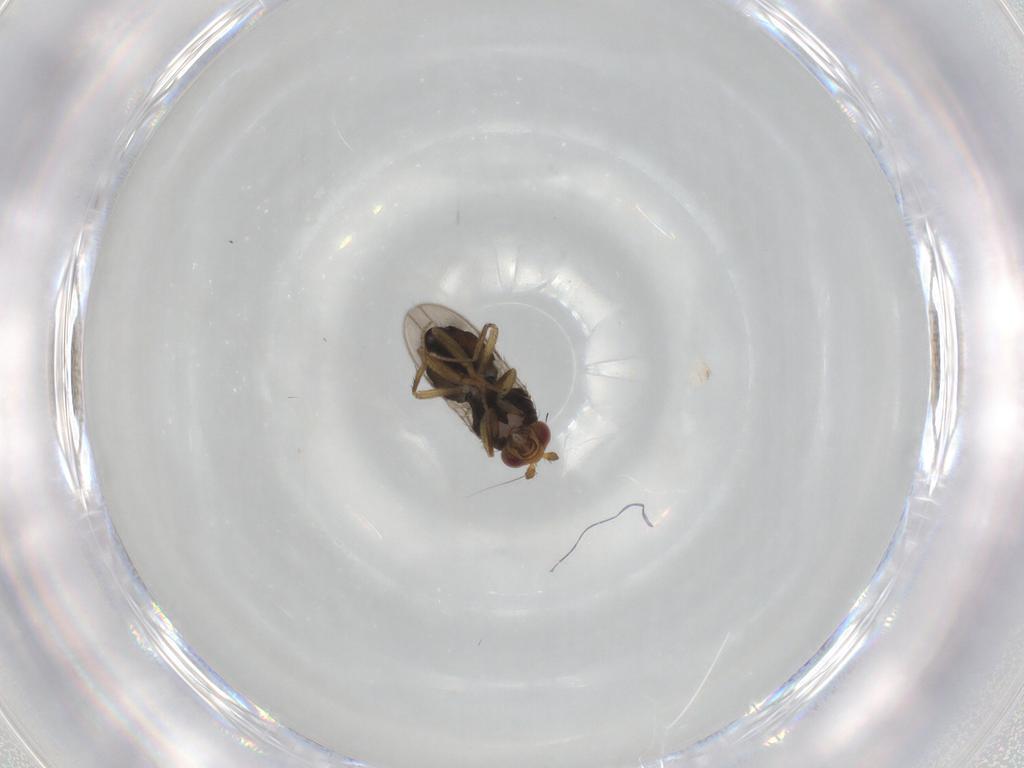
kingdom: Animalia
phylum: Arthropoda
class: Insecta
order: Diptera
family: Sphaeroceridae
